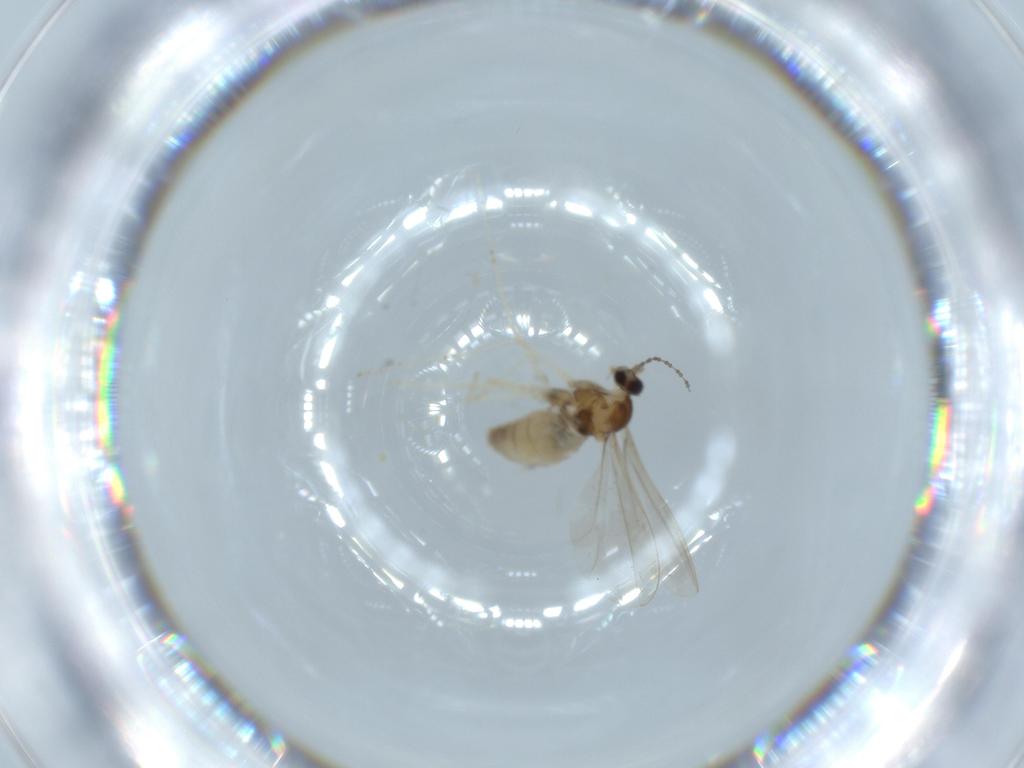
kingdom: Animalia
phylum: Arthropoda
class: Insecta
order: Diptera
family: Cecidomyiidae
